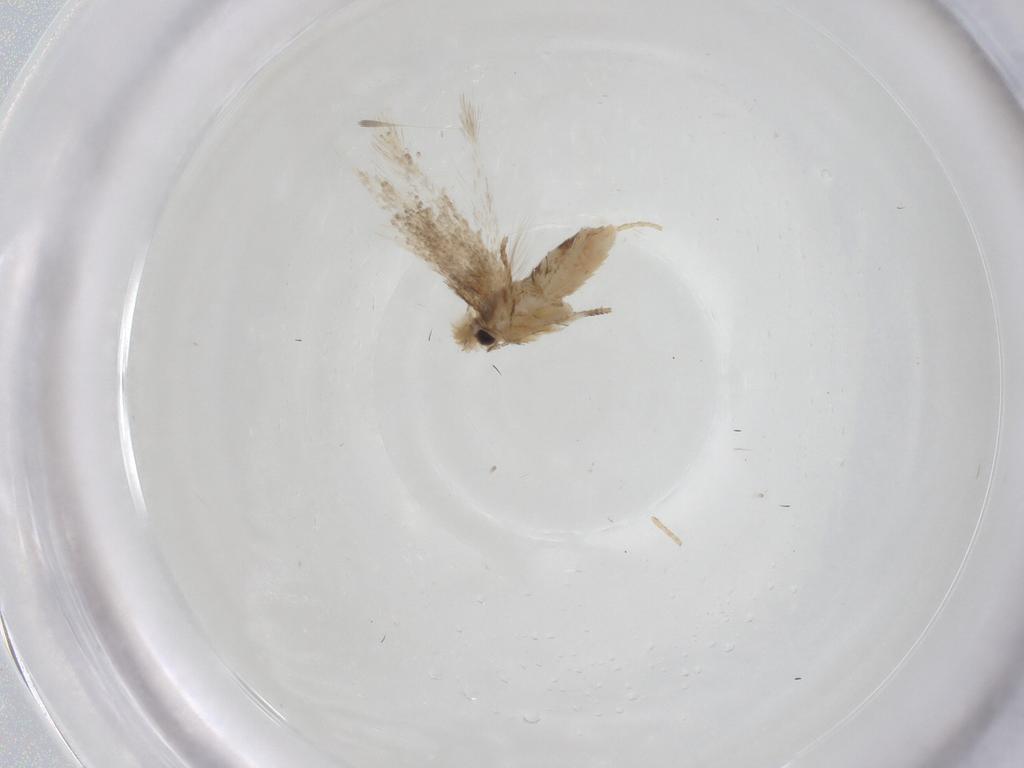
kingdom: Animalia
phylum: Arthropoda
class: Insecta
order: Lepidoptera
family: Nepticulidae
